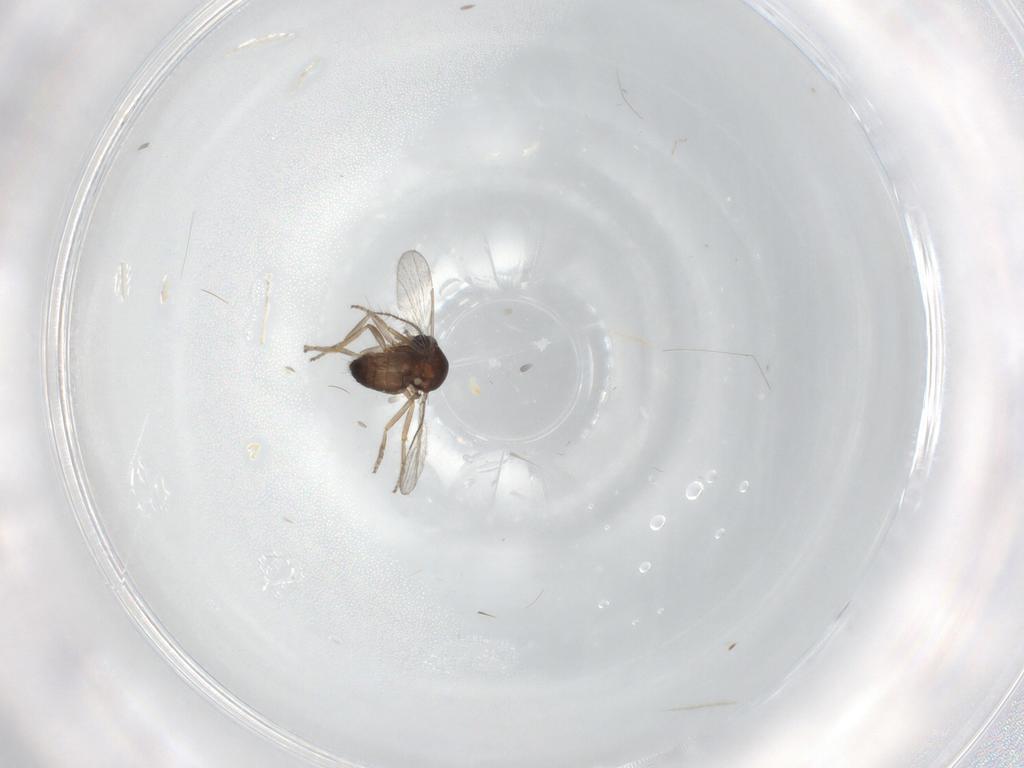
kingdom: Animalia
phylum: Arthropoda
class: Insecta
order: Diptera
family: Ceratopogonidae
